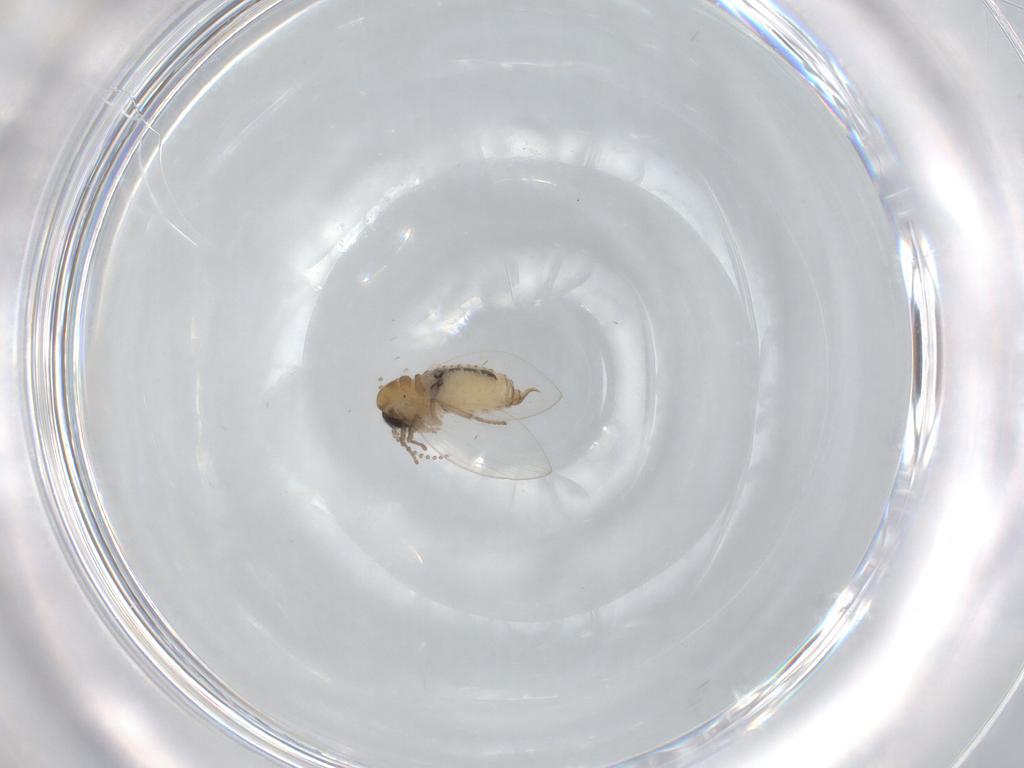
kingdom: Animalia
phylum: Arthropoda
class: Insecta
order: Diptera
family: Psychodidae
